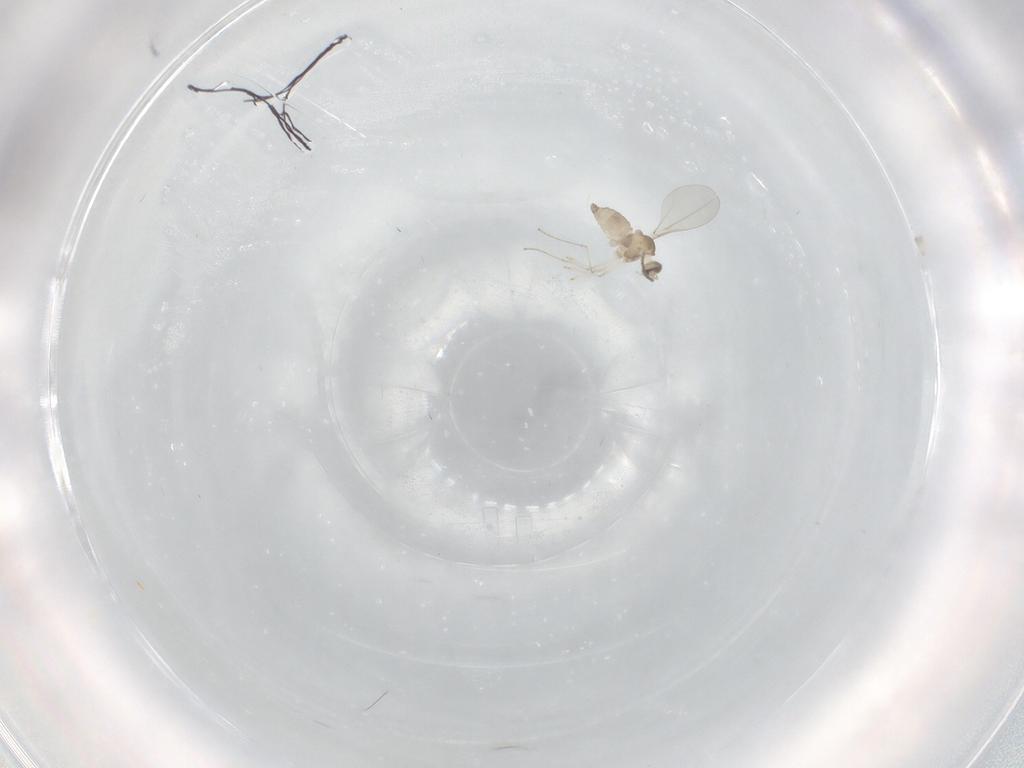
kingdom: Animalia
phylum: Arthropoda
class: Insecta
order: Diptera
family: Cecidomyiidae
